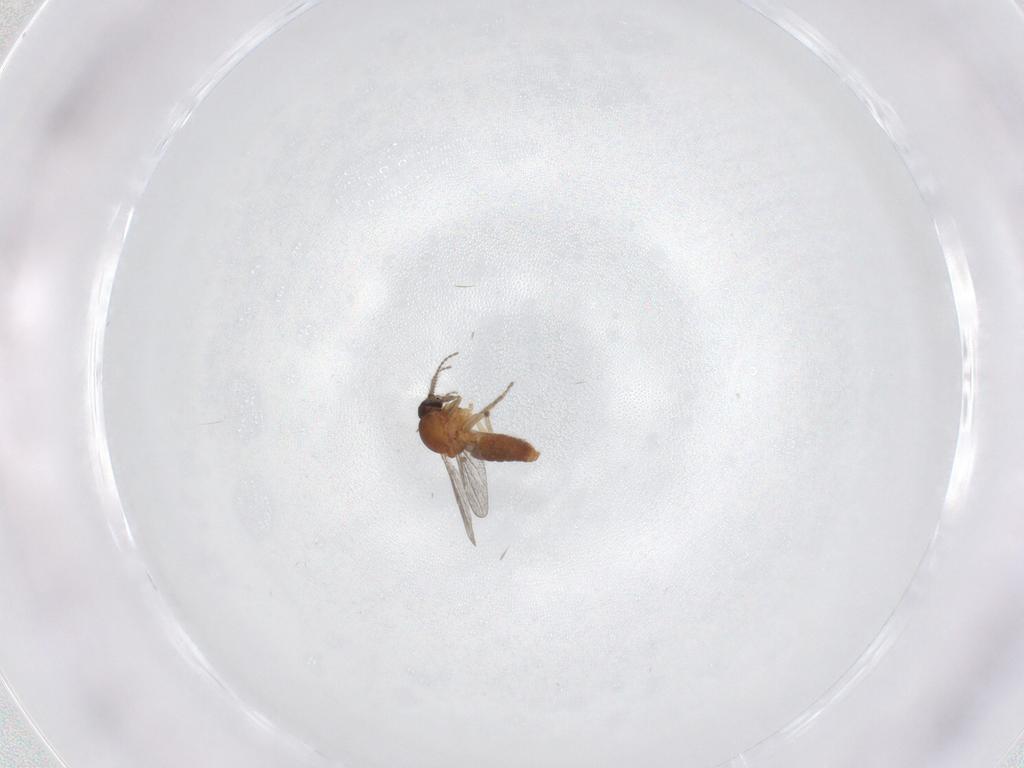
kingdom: Animalia
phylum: Arthropoda
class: Insecta
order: Diptera
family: Ceratopogonidae
